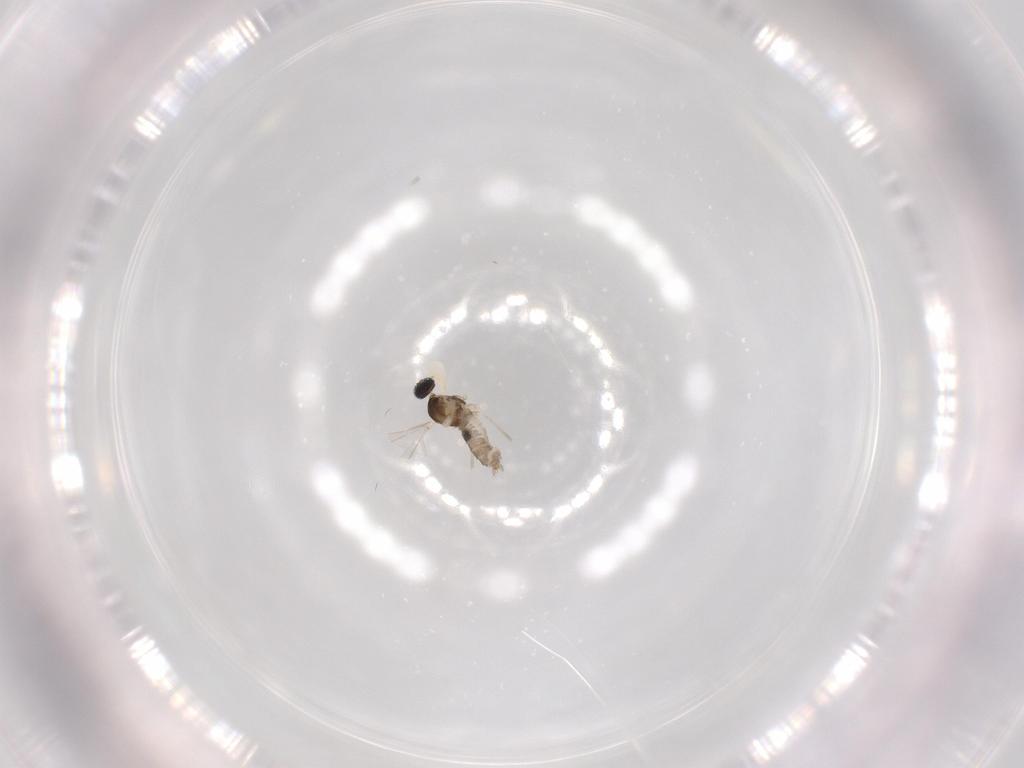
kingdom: Animalia
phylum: Arthropoda
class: Insecta
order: Diptera
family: Cecidomyiidae
